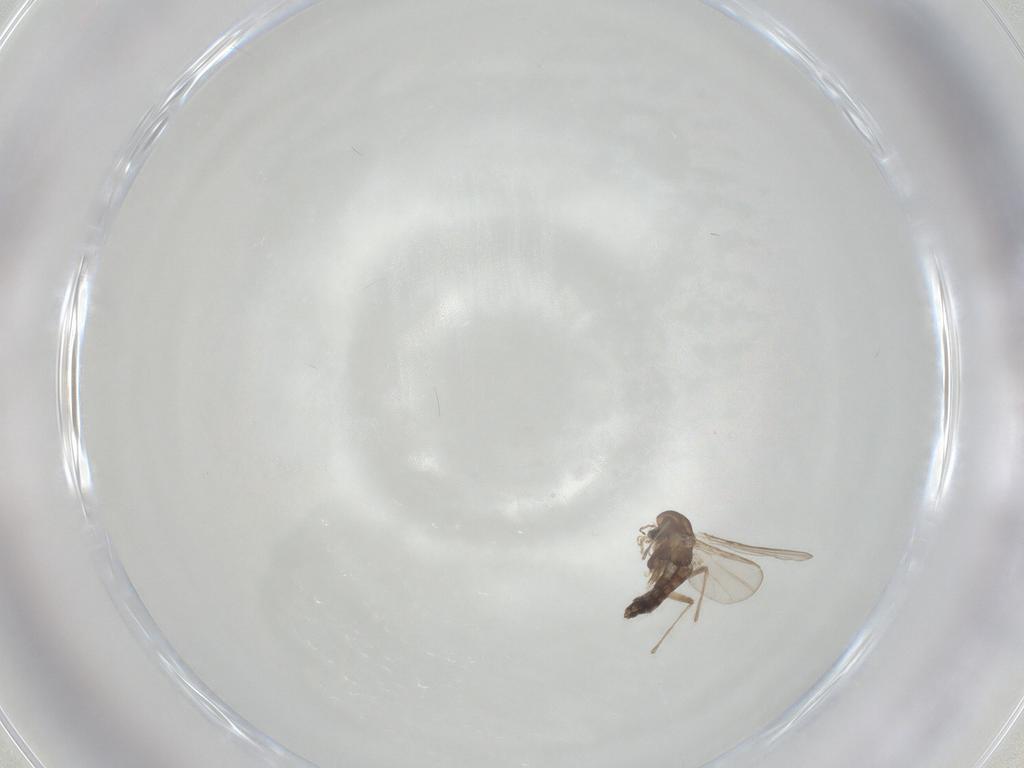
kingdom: Animalia
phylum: Arthropoda
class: Insecta
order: Diptera
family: Chironomidae
